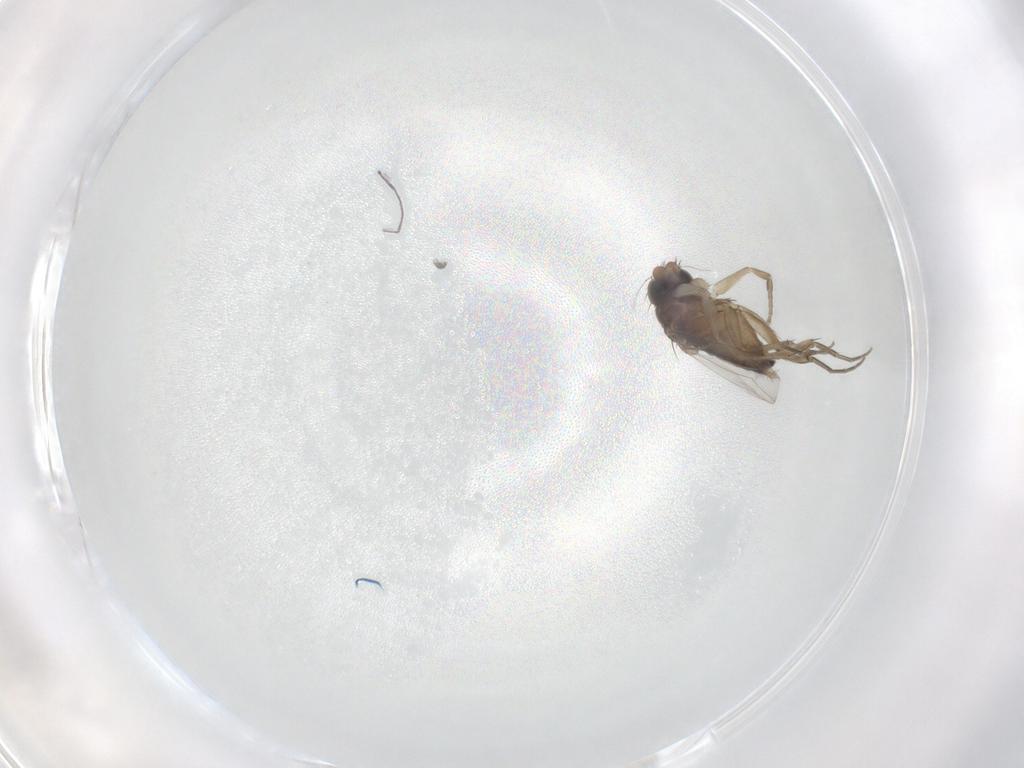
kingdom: Animalia
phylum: Arthropoda
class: Insecta
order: Diptera
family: Phoridae
